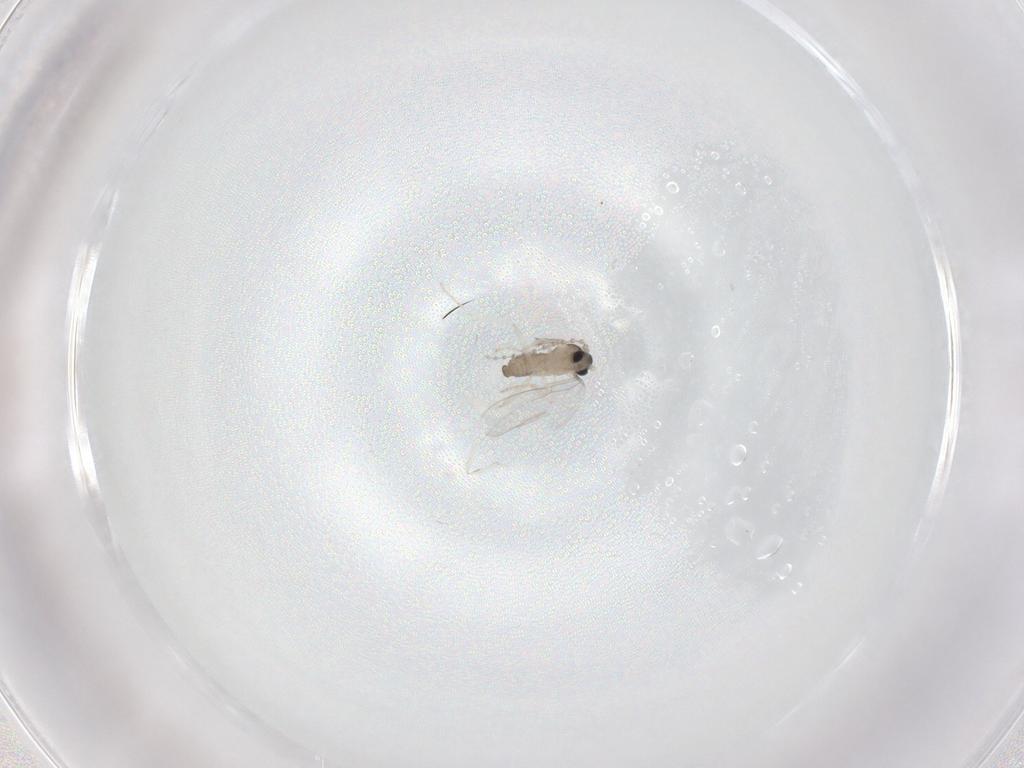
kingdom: Animalia
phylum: Arthropoda
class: Insecta
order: Diptera
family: Cecidomyiidae
